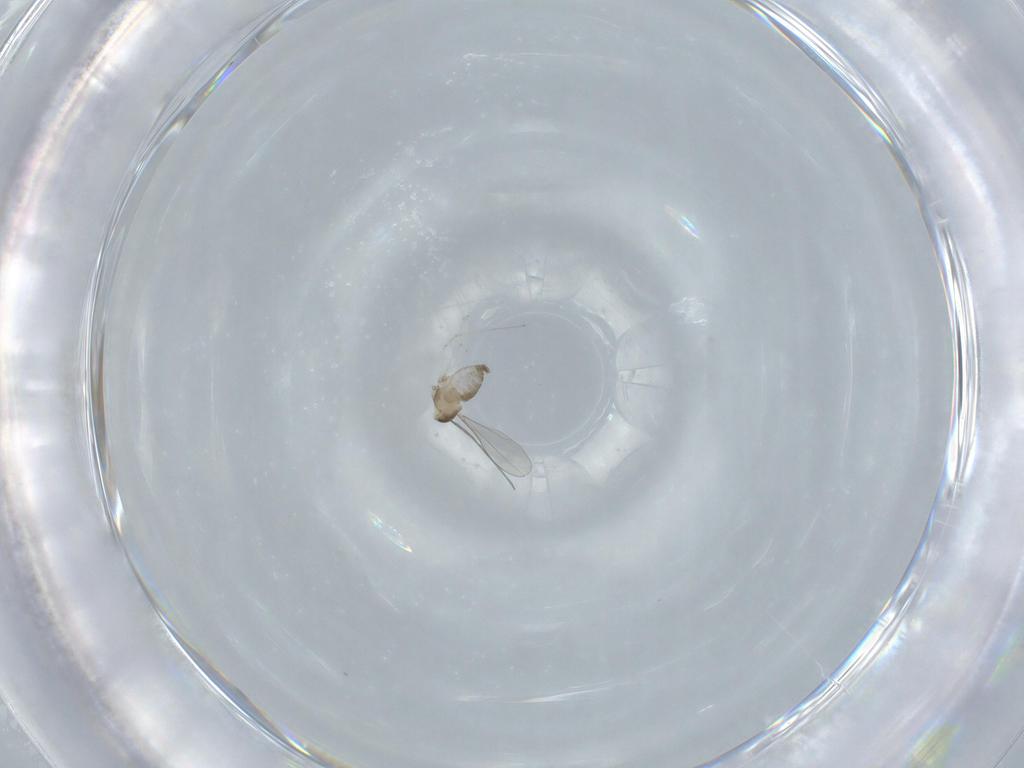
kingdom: Animalia
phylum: Arthropoda
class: Insecta
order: Diptera
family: Cecidomyiidae
